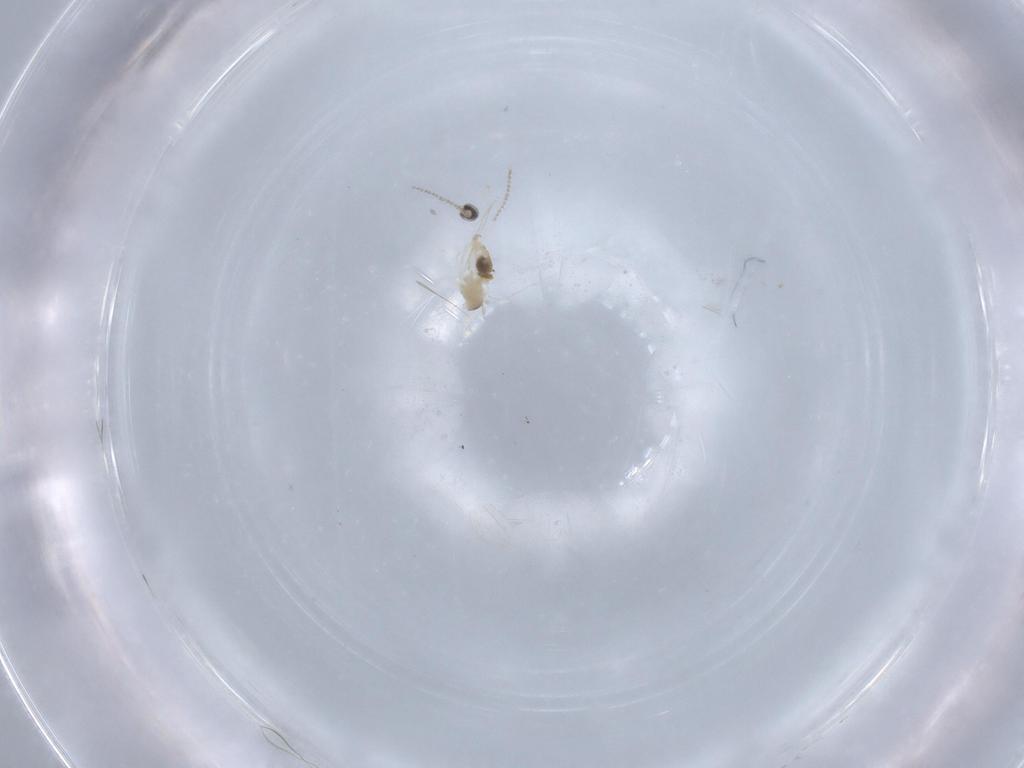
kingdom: Animalia
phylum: Arthropoda
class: Insecta
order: Diptera
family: Cecidomyiidae
